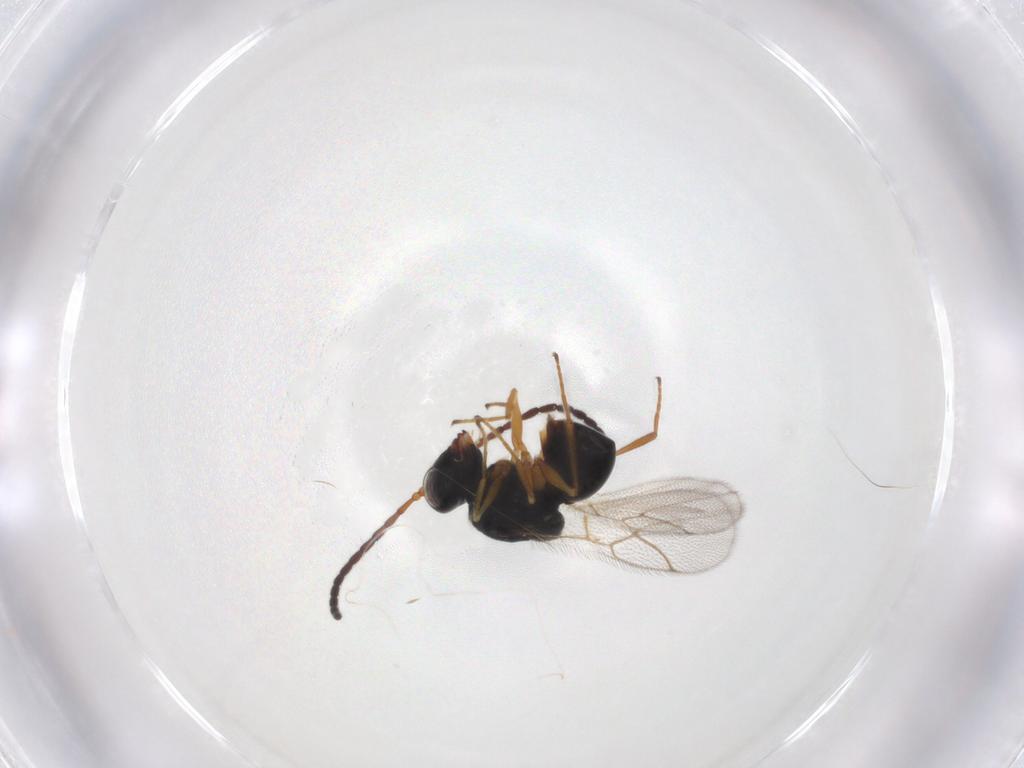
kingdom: Animalia
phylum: Arthropoda
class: Insecta
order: Hymenoptera
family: Figitidae
